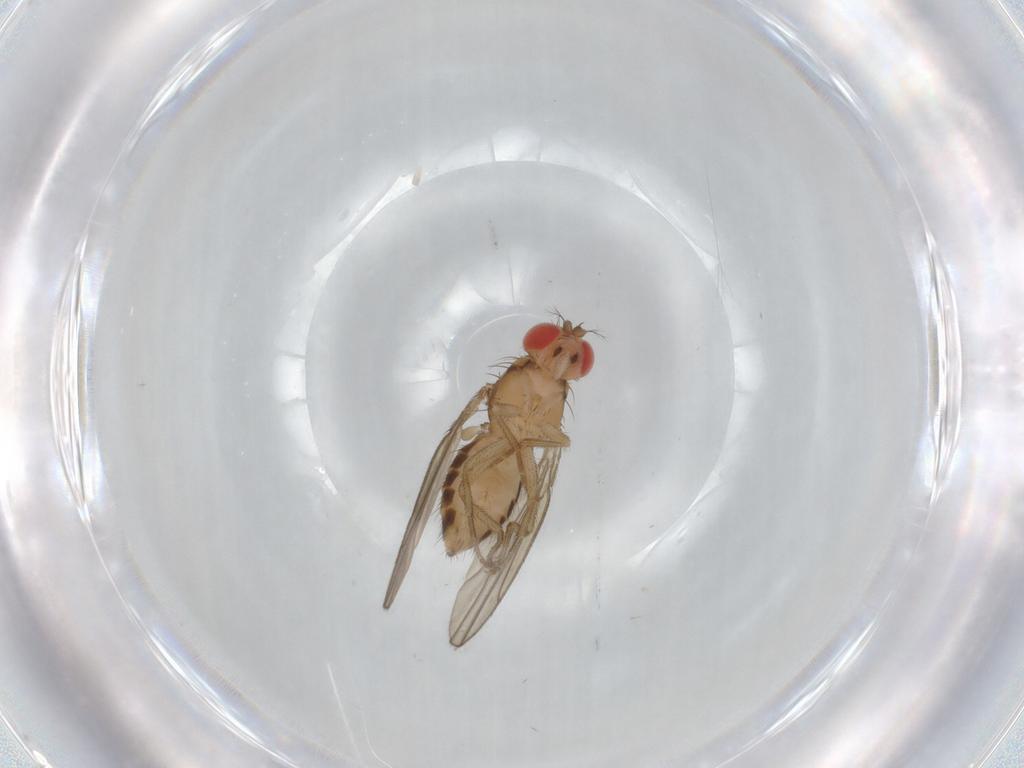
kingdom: Animalia
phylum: Arthropoda
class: Insecta
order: Diptera
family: Drosophilidae
